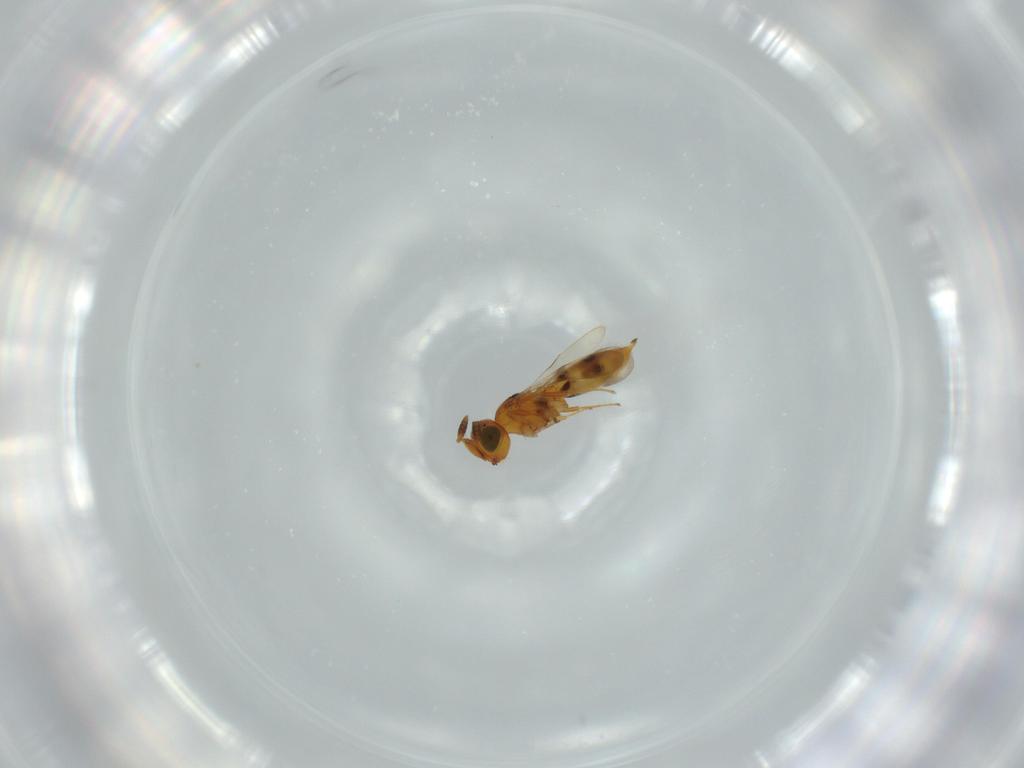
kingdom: Animalia
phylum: Arthropoda
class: Insecta
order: Hymenoptera
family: Scelionidae
